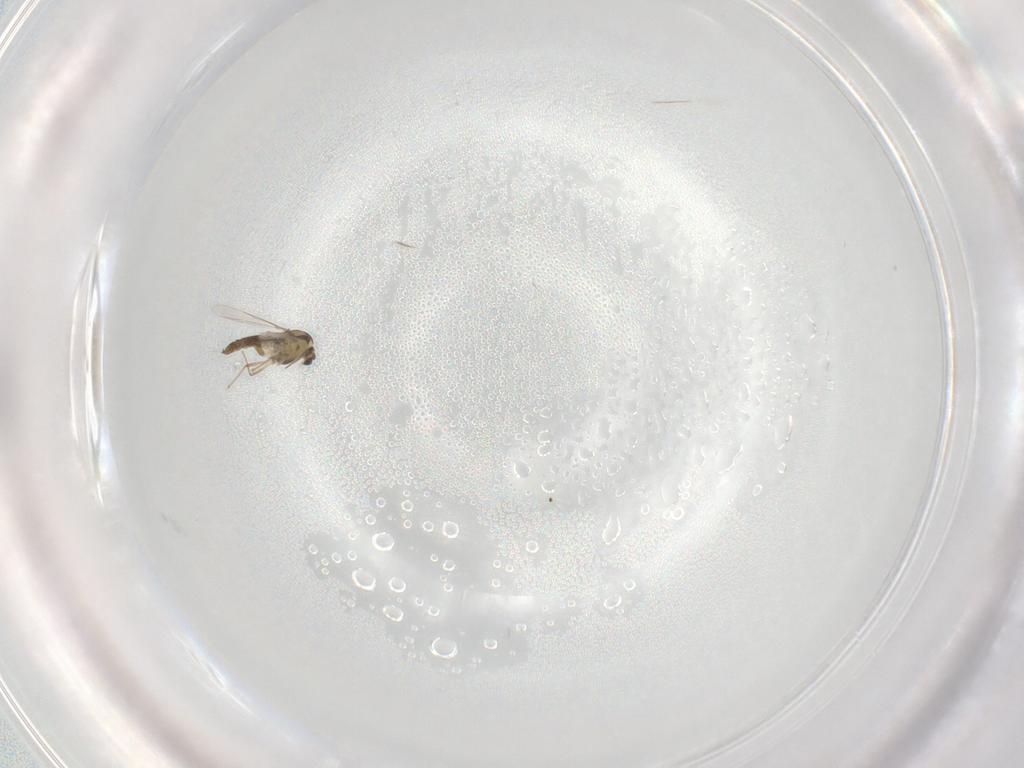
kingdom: Animalia
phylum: Arthropoda
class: Insecta
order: Diptera
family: Chironomidae
